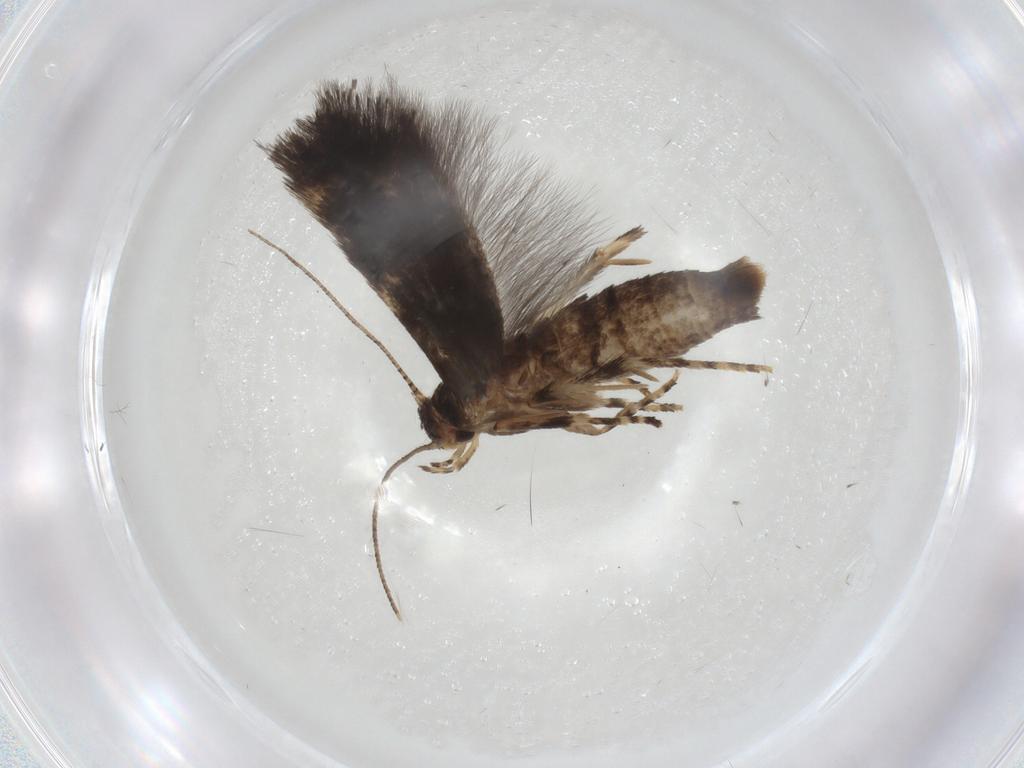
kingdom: Animalia
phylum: Arthropoda
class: Insecta
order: Lepidoptera
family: Elachistidae
